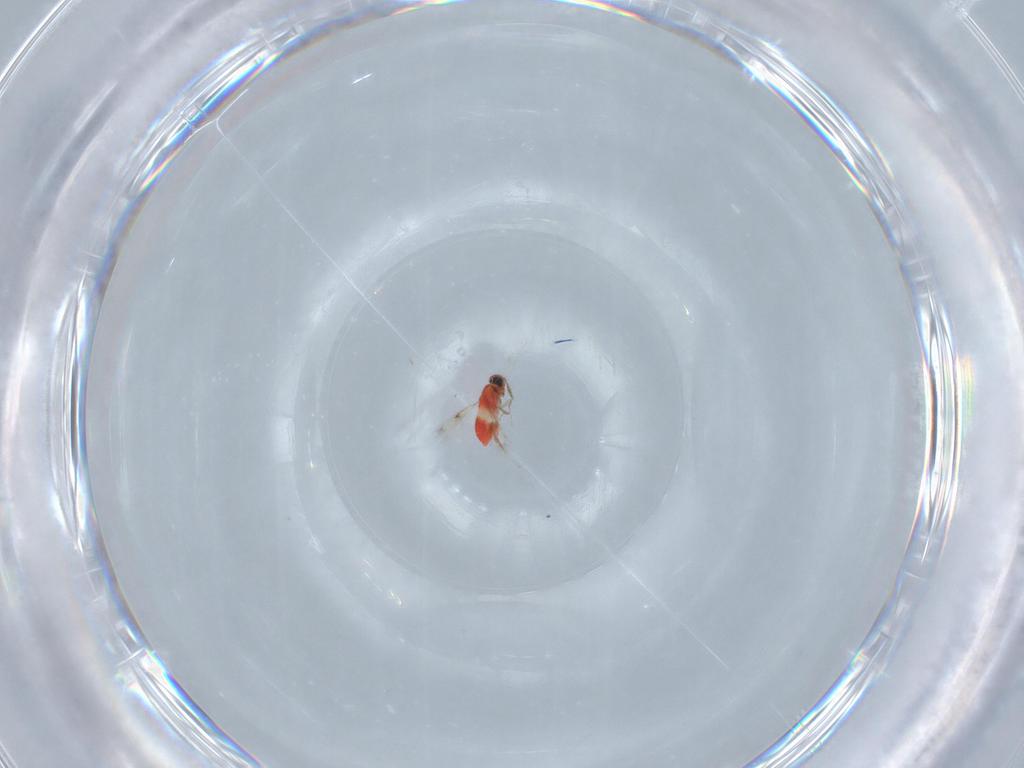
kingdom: Animalia
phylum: Arthropoda
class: Insecta
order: Hymenoptera
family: Trichogrammatidae
